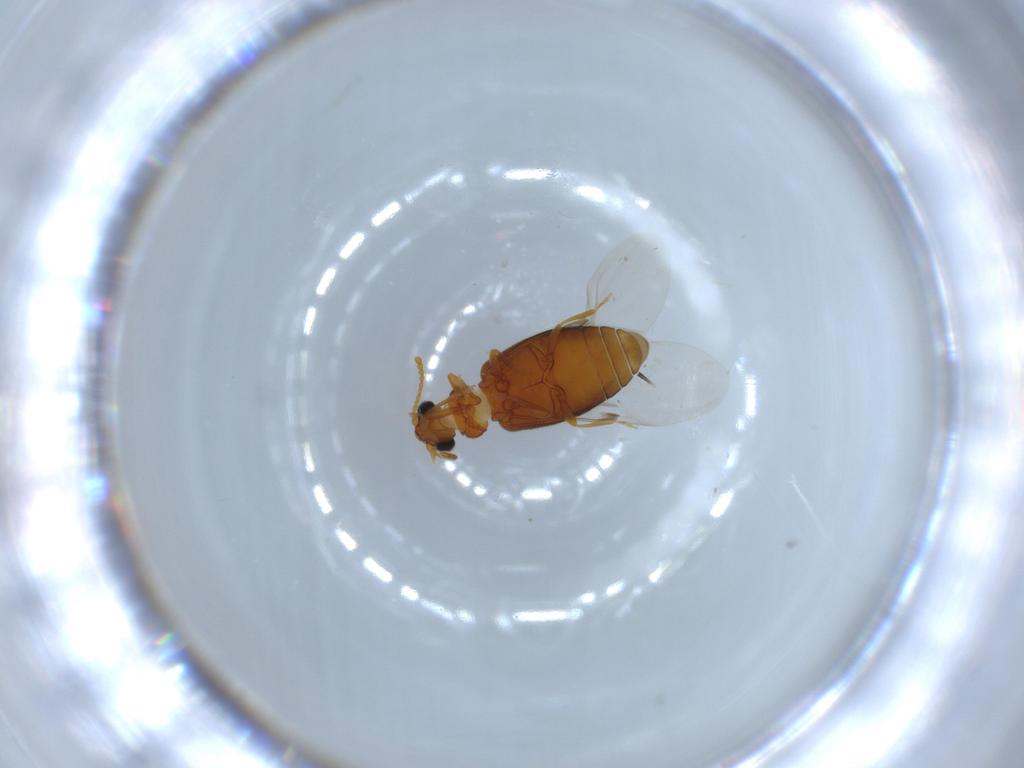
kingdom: Animalia
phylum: Arthropoda
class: Insecta
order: Coleoptera
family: Aderidae
